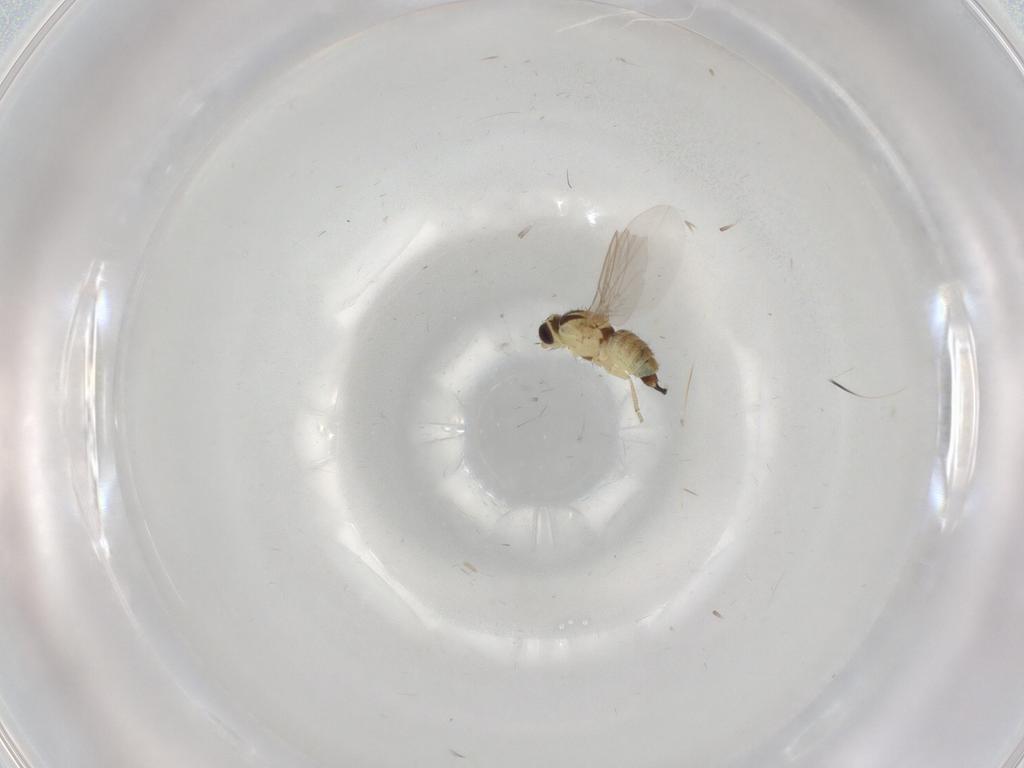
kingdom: Animalia
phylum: Arthropoda
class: Insecta
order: Diptera
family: Agromyzidae
